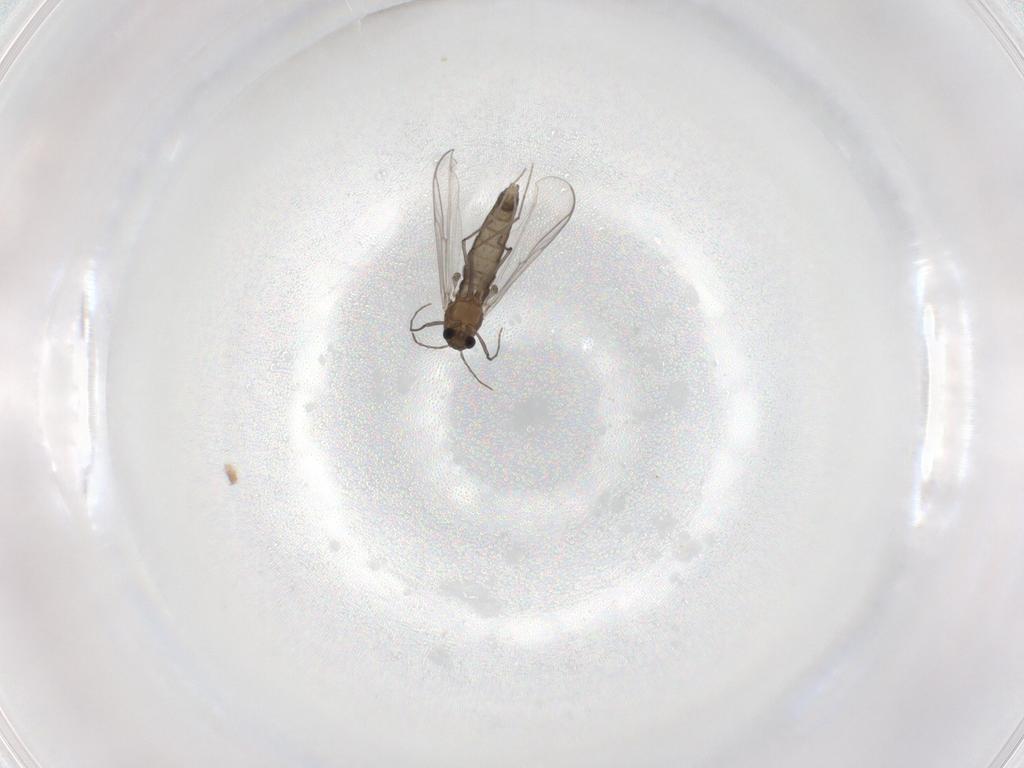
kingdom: Animalia
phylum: Arthropoda
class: Insecta
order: Diptera
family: Chironomidae
